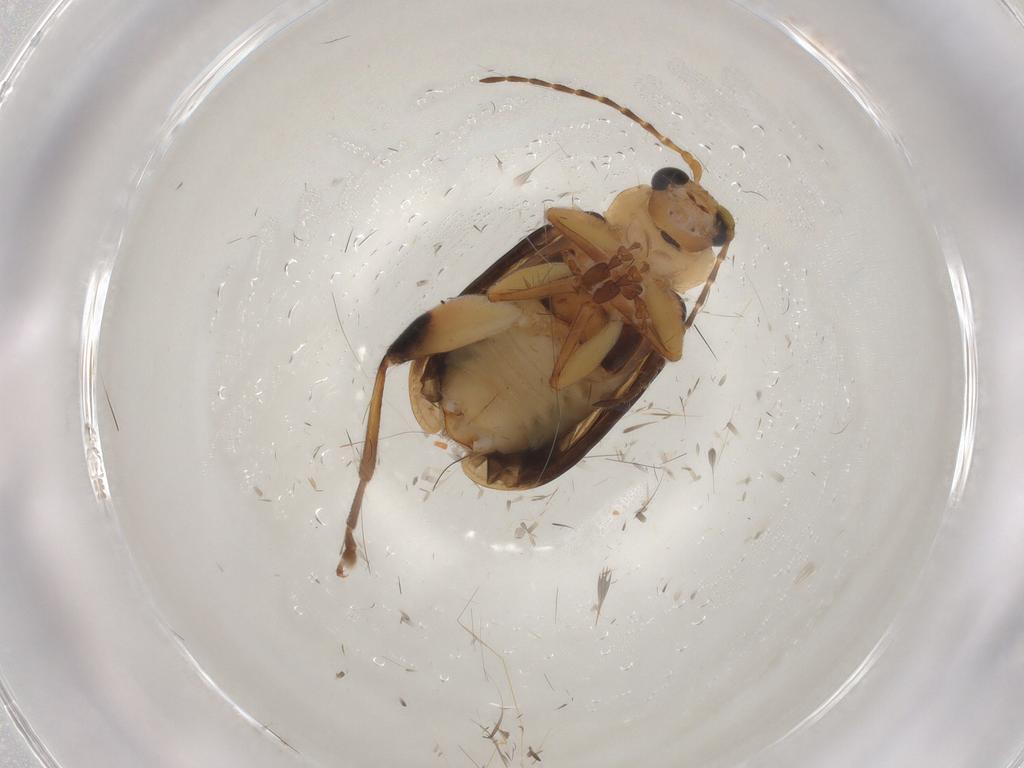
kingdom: Animalia
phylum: Arthropoda
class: Insecta
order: Coleoptera
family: Chrysomelidae
